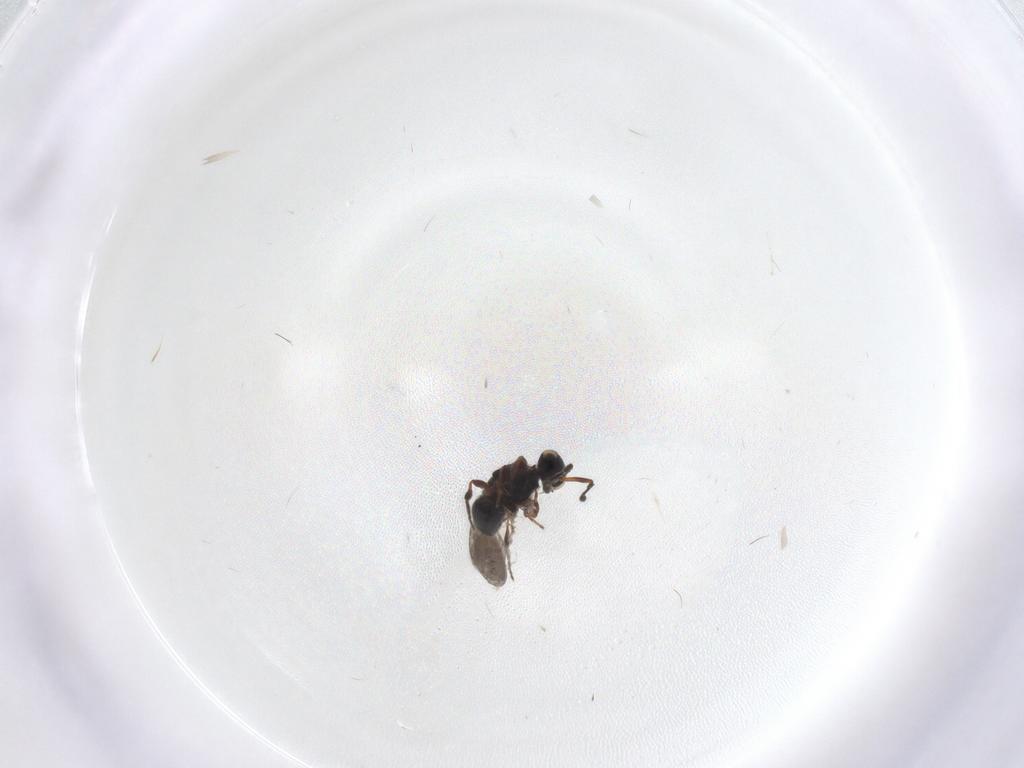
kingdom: Animalia
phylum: Arthropoda
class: Insecta
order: Hymenoptera
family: Platygastridae
